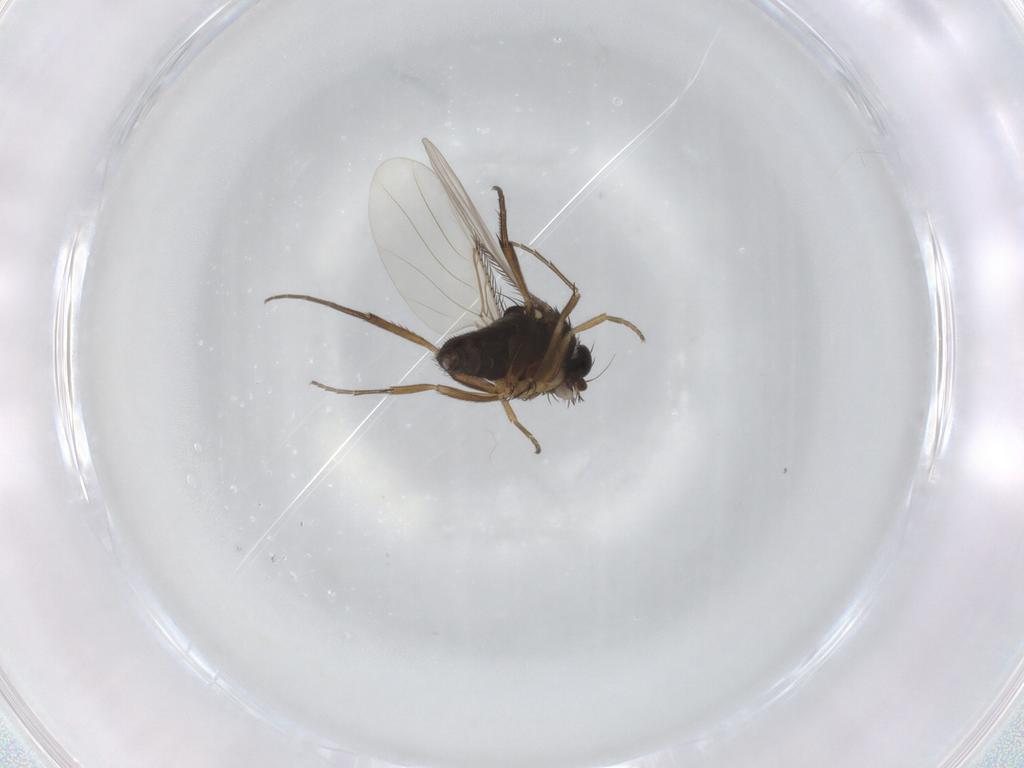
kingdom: Animalia
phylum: Arthropoda
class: Insecta
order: Diptera
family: Phoridae
